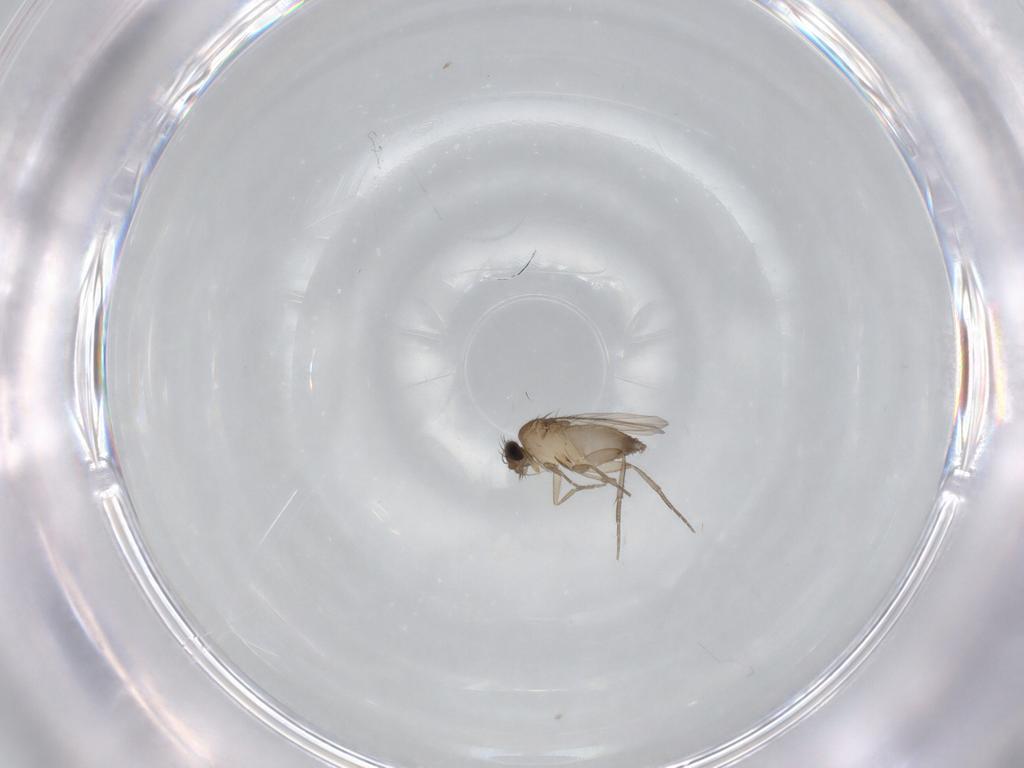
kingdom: Animalia
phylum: Arthropoda
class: Insecta
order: Diptera
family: Phoridae
